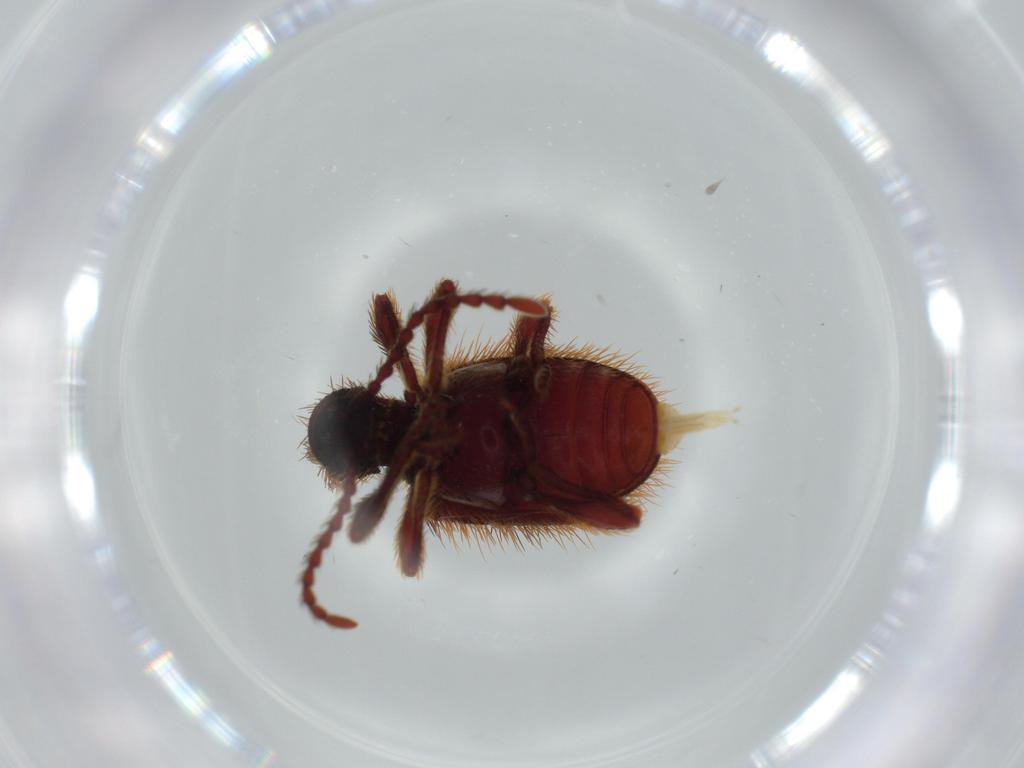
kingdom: Animalia
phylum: Arthropoda
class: Insecta
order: Coleoptera
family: Ptinidae
